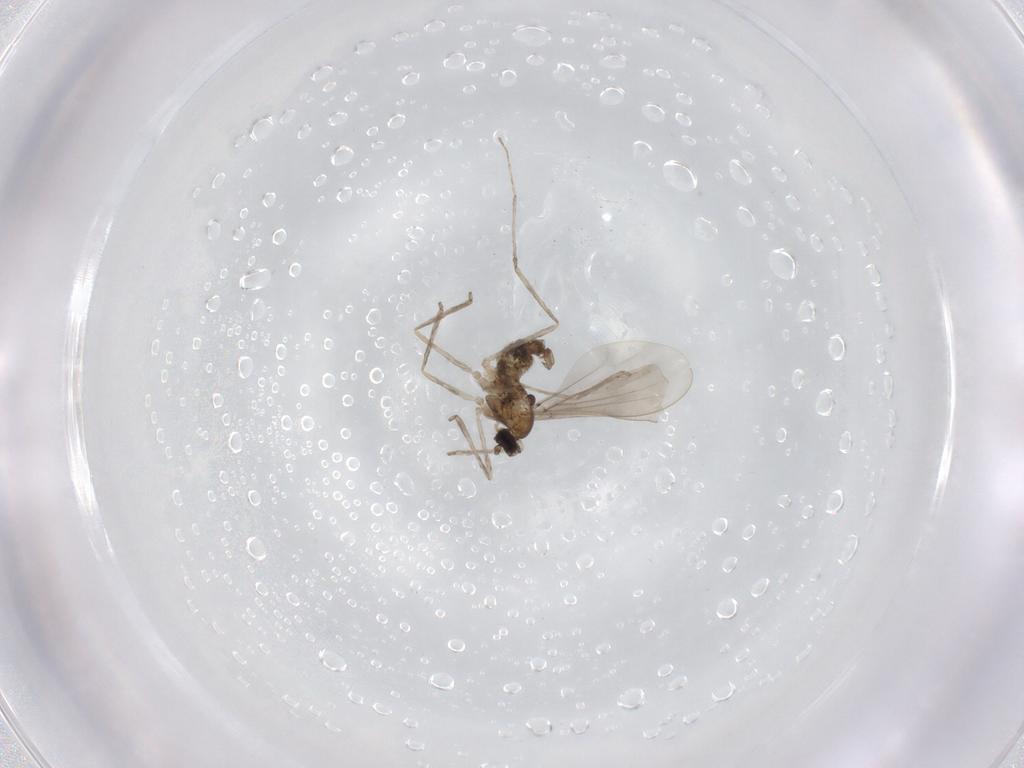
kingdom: Animalia
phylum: Arthropoda
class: Insecta
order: Diptera
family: Cecidomyiidae
